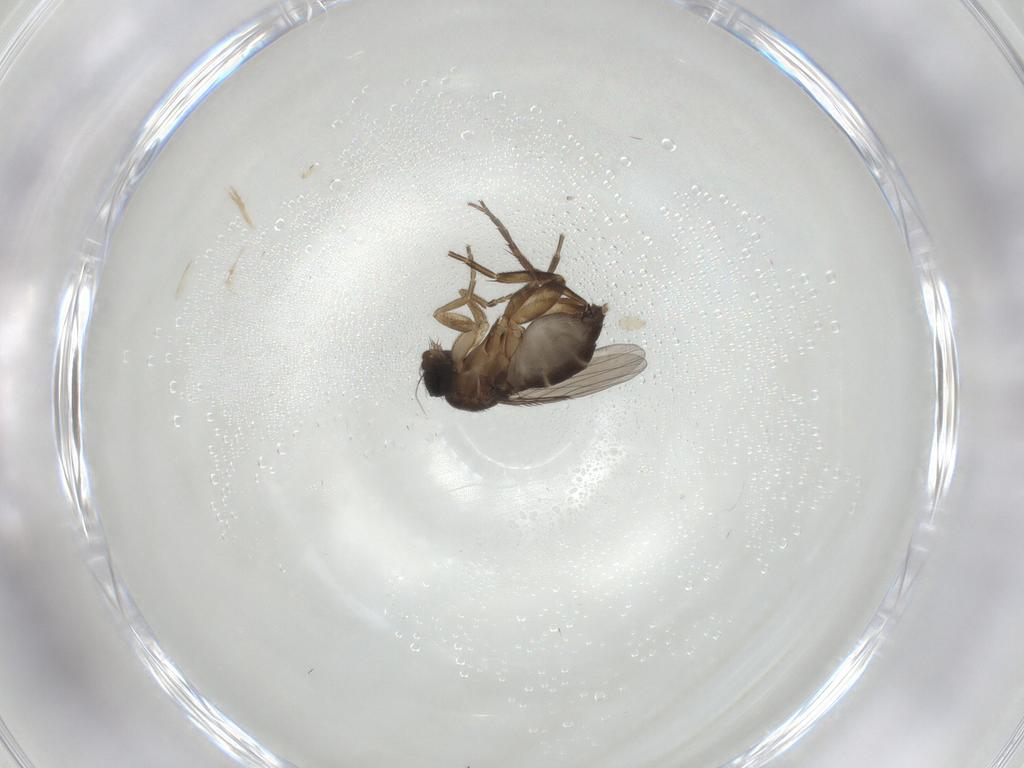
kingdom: Animalia
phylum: Arthropoda
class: Insecta
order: Diptera
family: Phoridae
